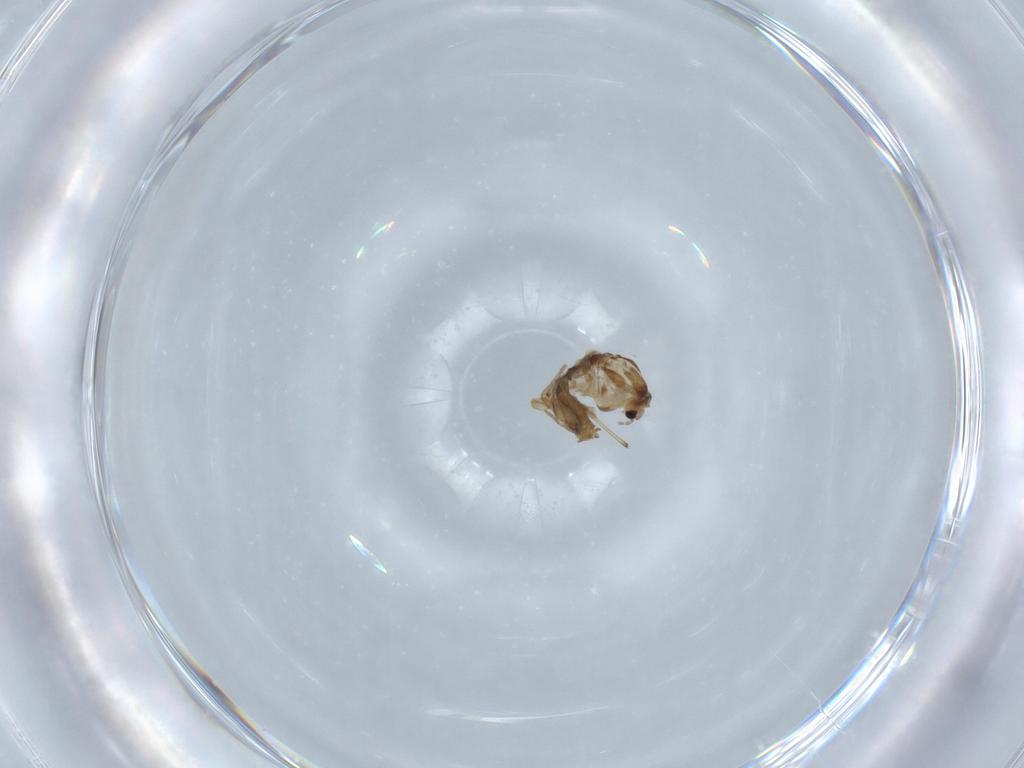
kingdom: Animalia
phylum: Arthropoda
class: Insecta
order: Diptera
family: Chironomidae
